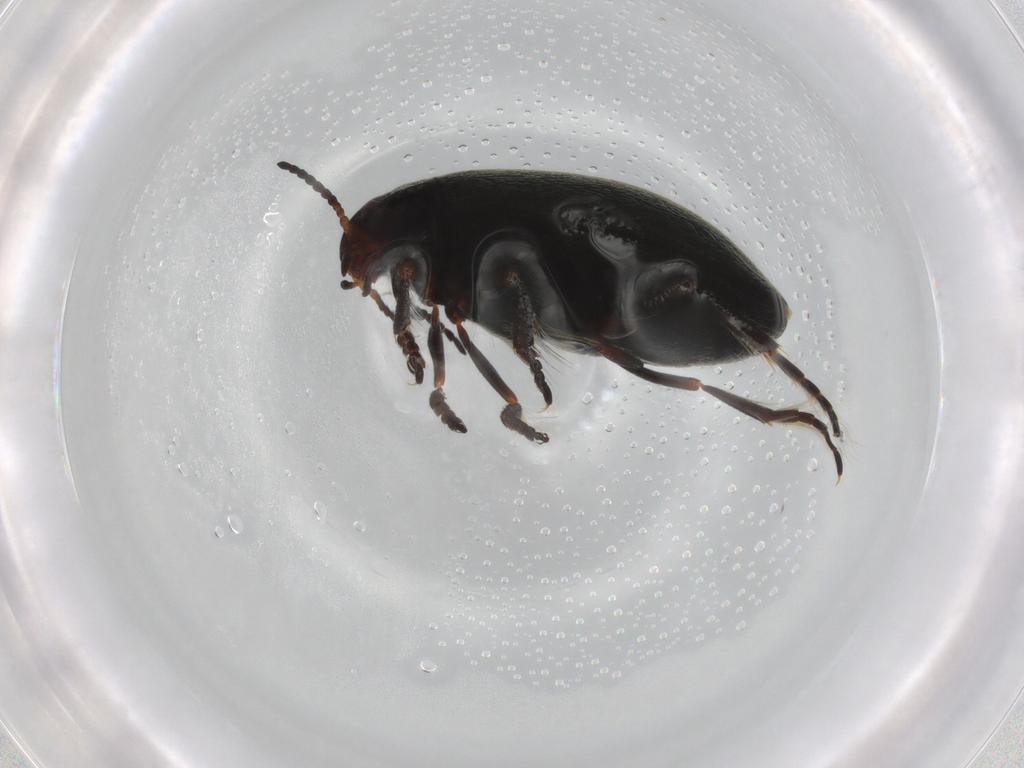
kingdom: Animalia
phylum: Arthropoda
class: Insecta
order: Coleoptera
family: Dytiscidae
